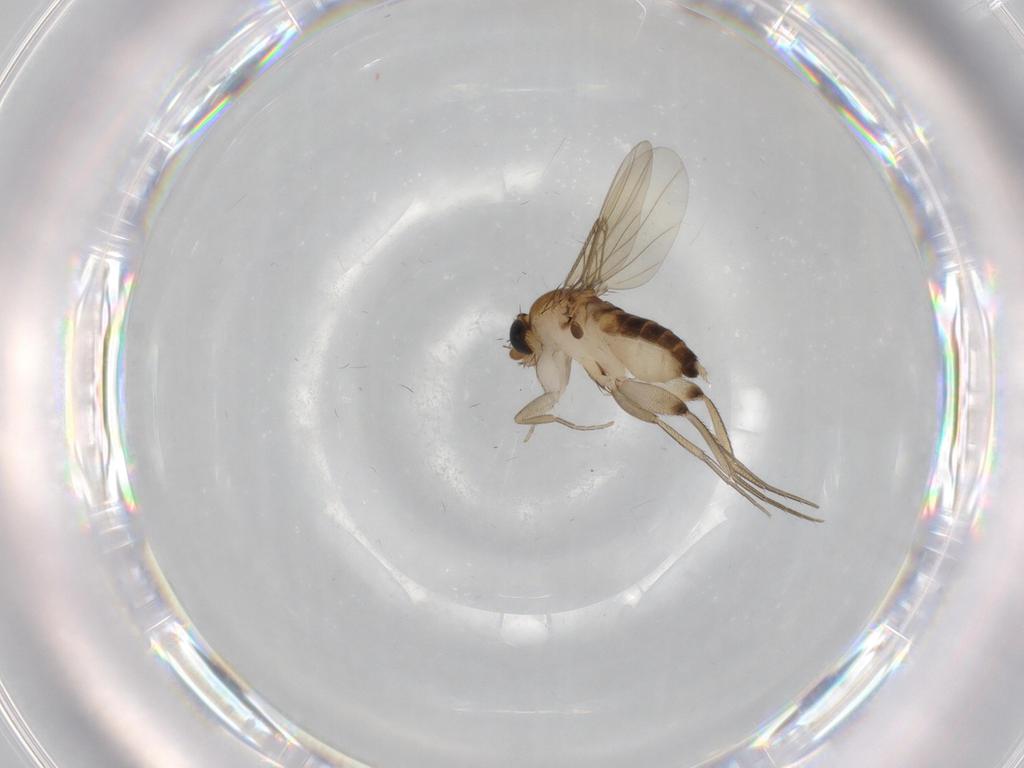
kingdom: Animalia
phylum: Arthropoda
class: Insecta
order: Diptera
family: Phoridae
